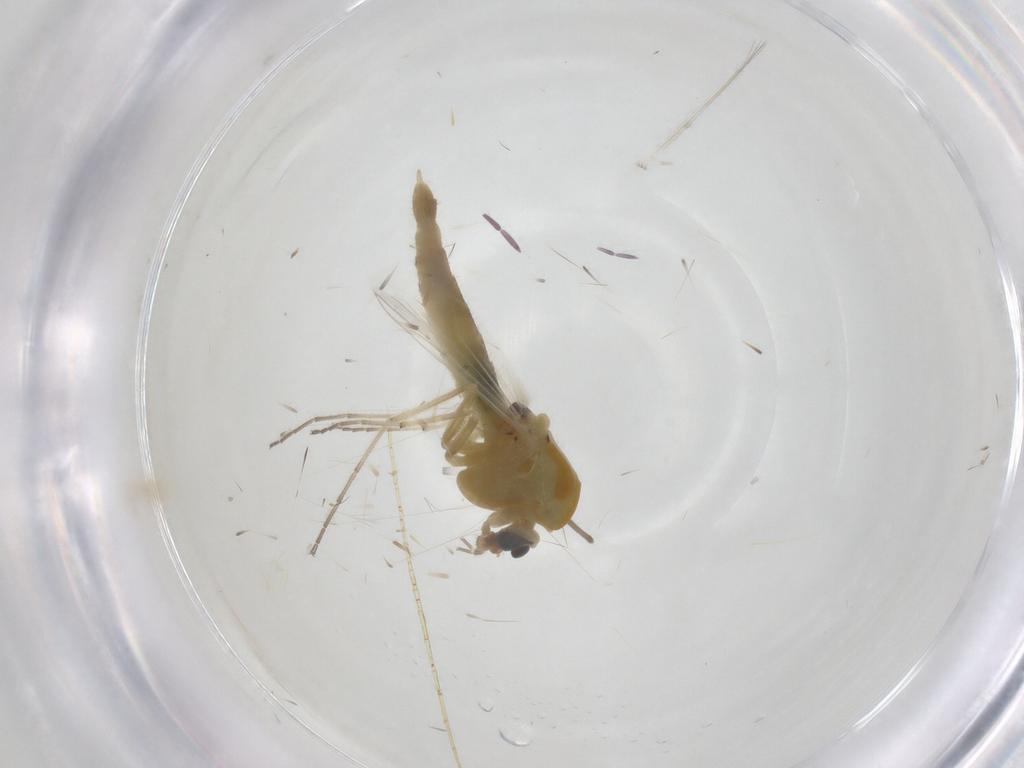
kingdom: Animalia
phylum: Arthropoda
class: Insecta
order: Diptera
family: Chironomidae
